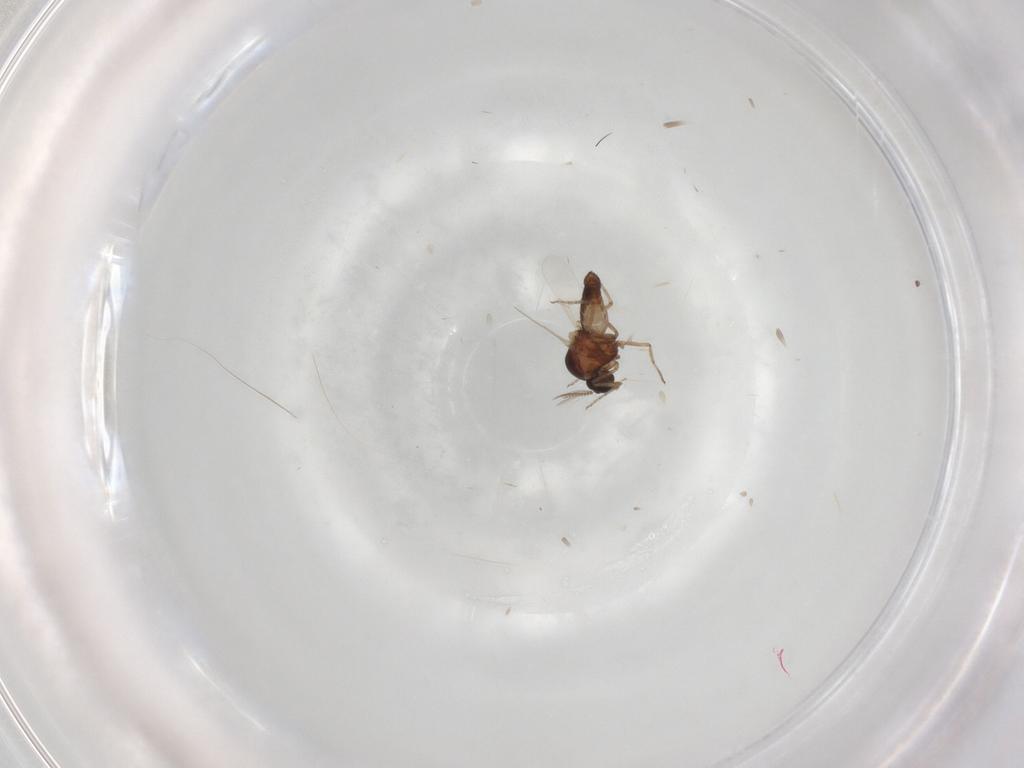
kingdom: Animalia
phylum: Arthropoda
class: Insecta
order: Diptera
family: Ceratopogonidae
